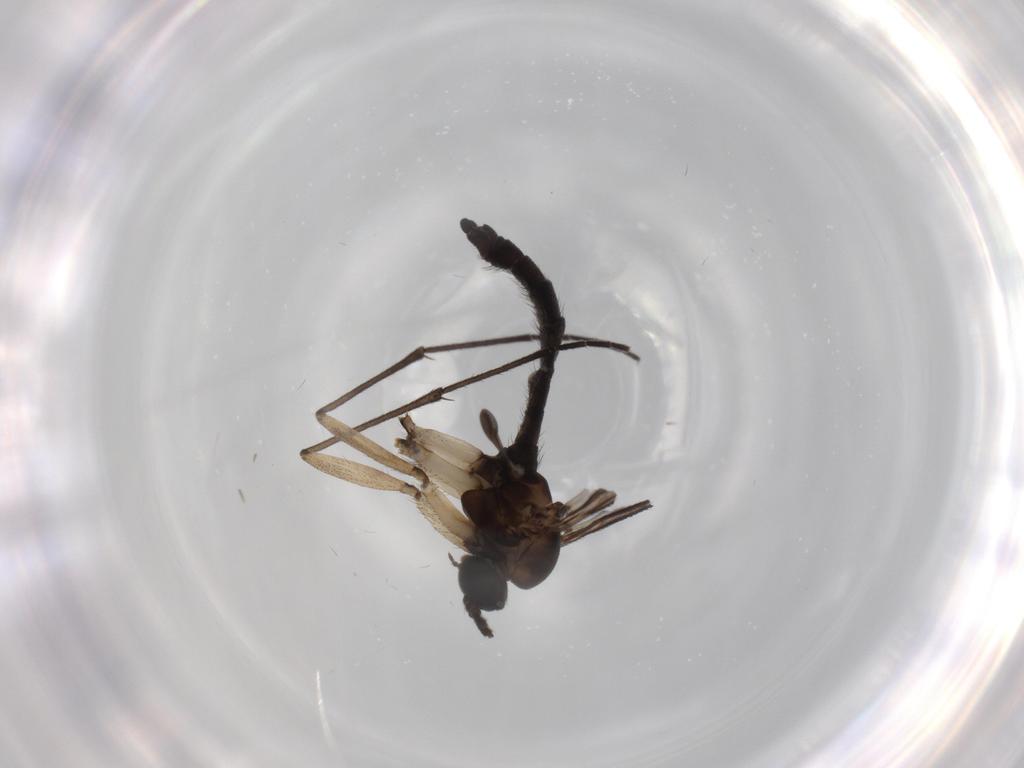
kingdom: Animalia
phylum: Arthropoda
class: Insecta
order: Diptera
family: Sciaridae
